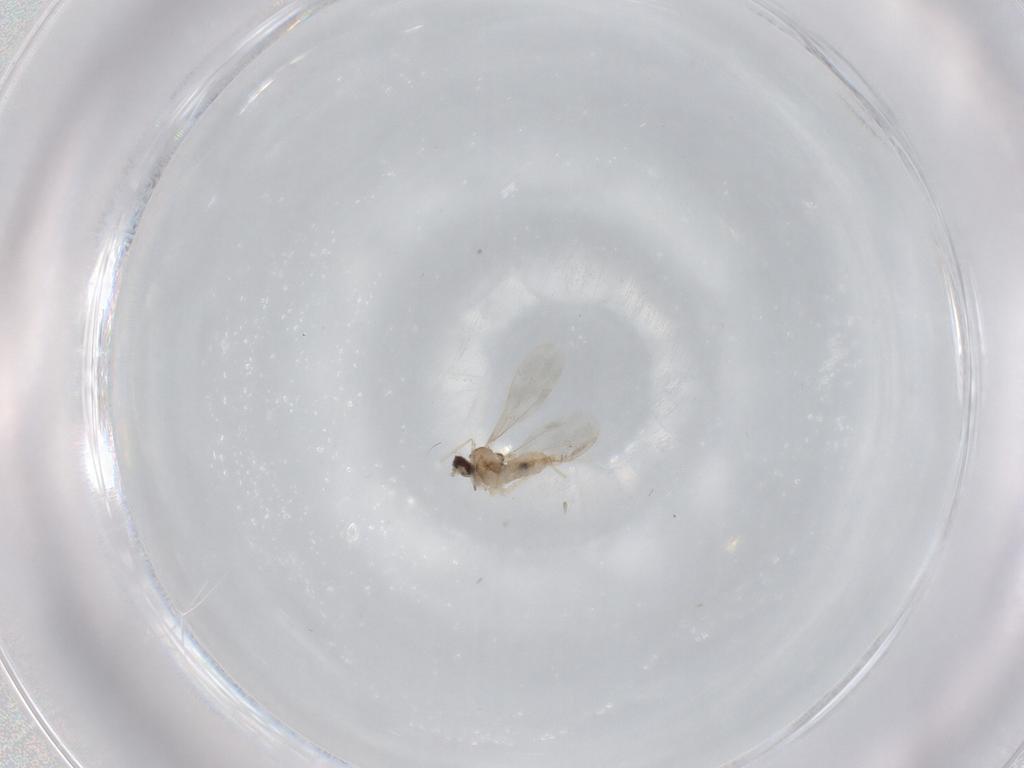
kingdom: Animalia
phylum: Arthropoda
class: Insecta
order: Diptera
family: Cecidomyiidae
